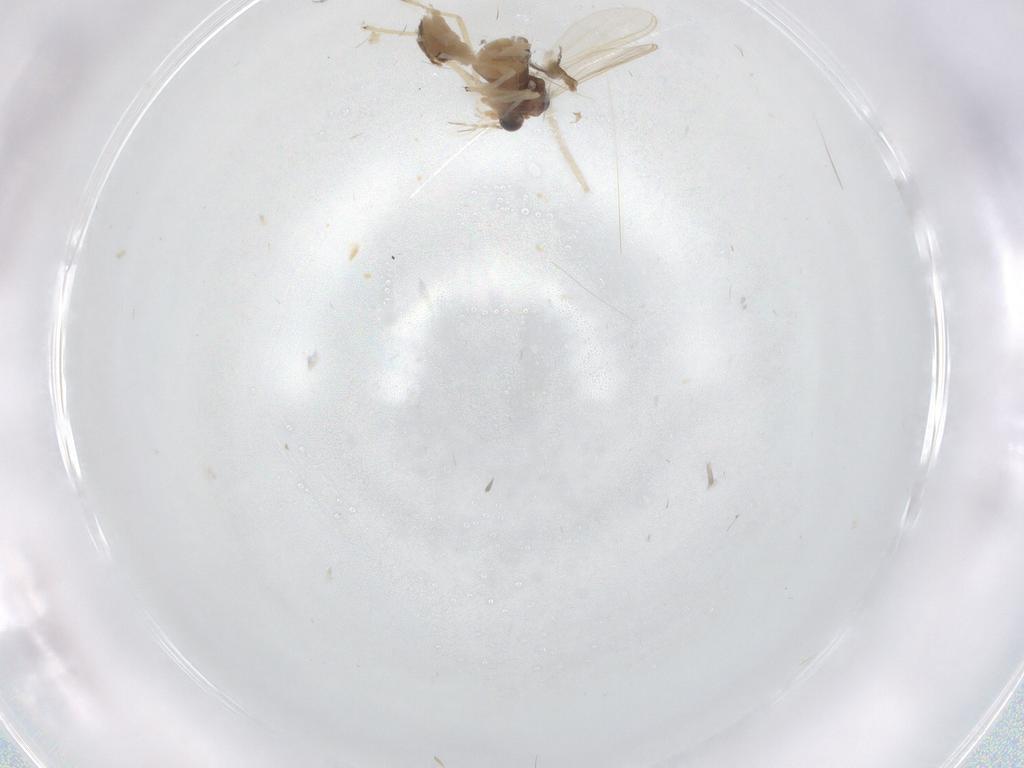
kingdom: Animalia
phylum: Arthropoda
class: Insecta
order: Diptera
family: Chironomidae
